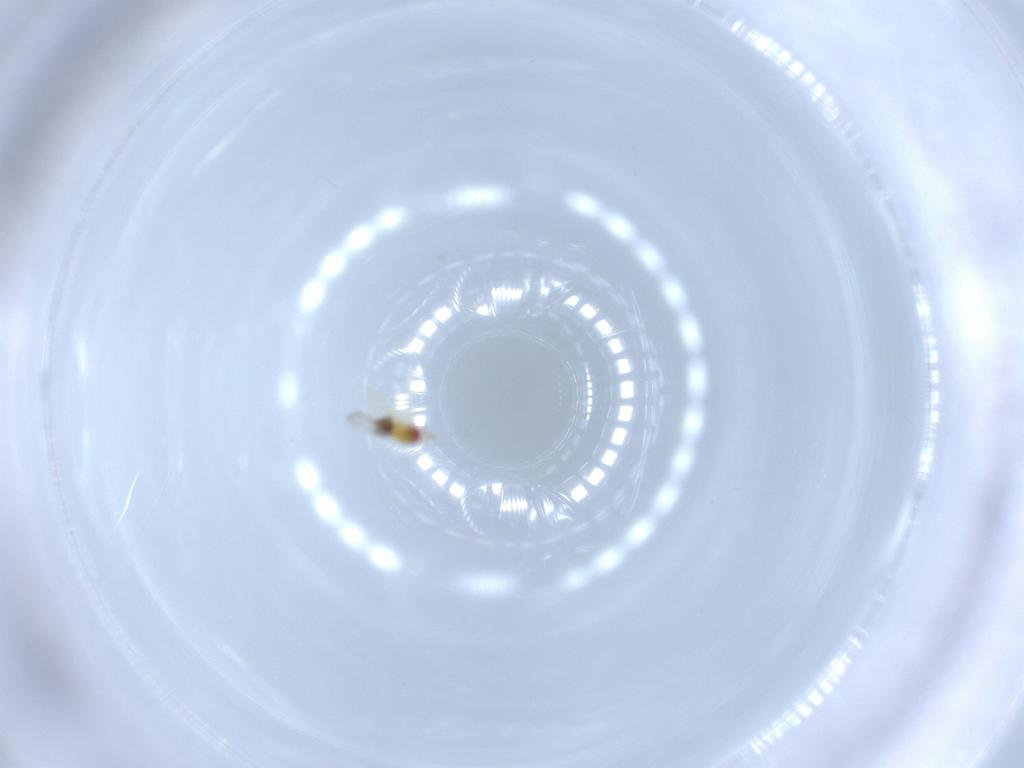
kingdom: Animalia
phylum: Arthropoda
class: Insecta
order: Hymenoptera
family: Trichogrammatidae
